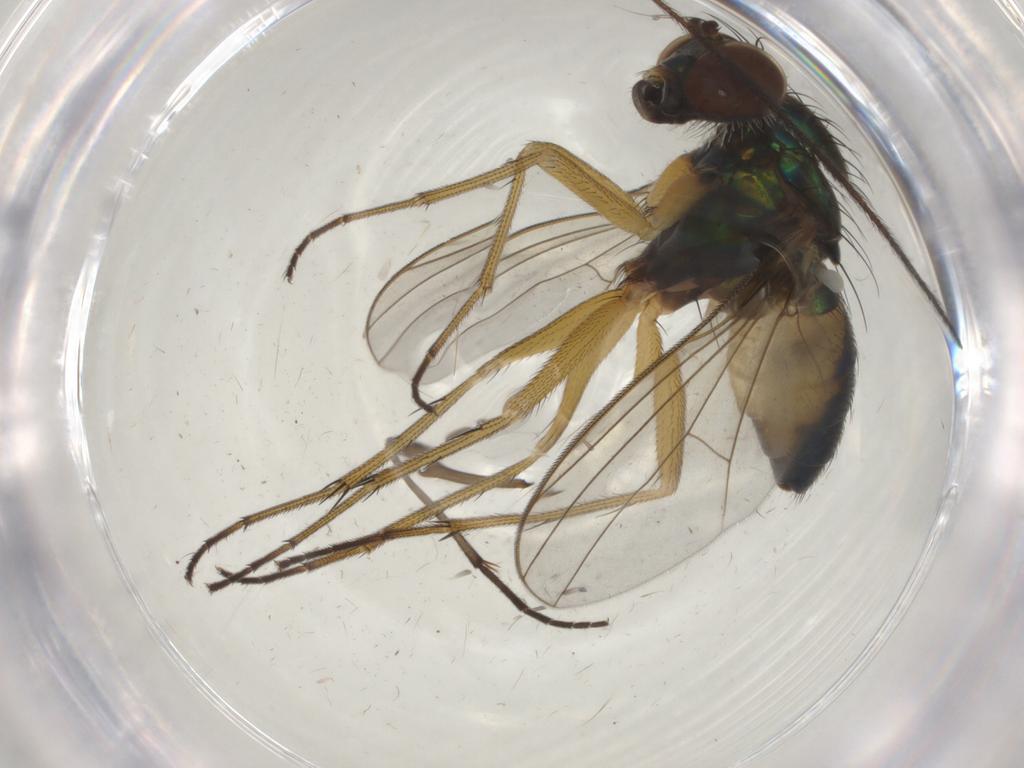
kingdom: Animalia
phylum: Arthropoda
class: Insecta
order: Diptera
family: Sciaridae
